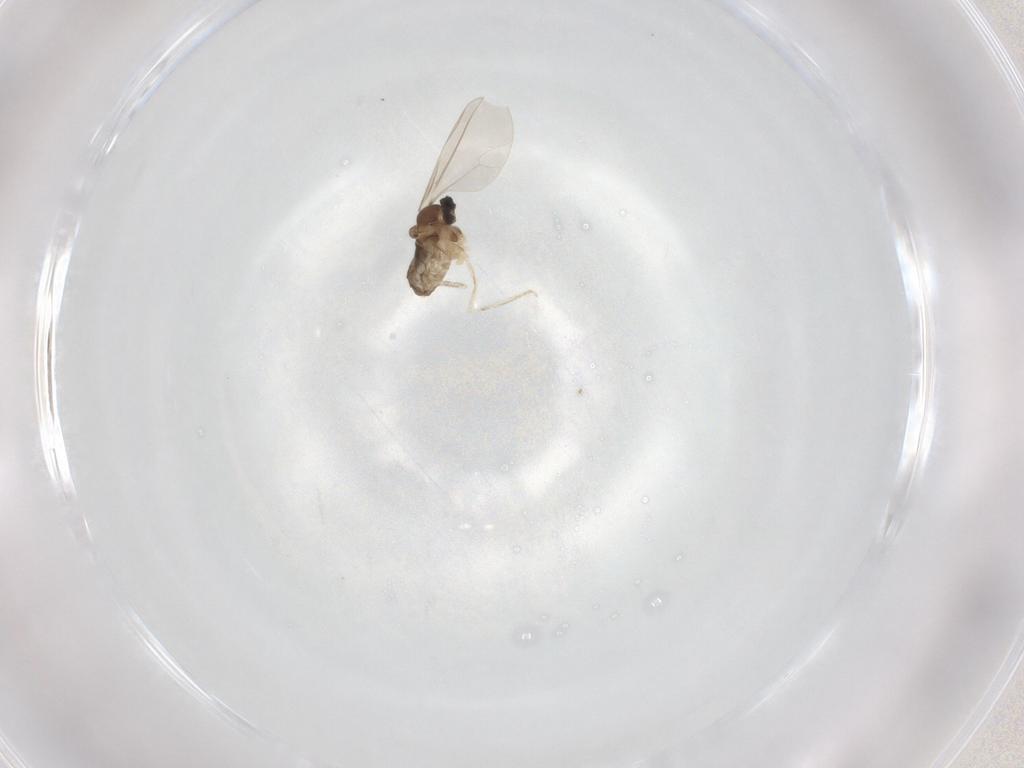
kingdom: Animalia
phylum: Arthropoda
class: Insecta
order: Diptera
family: Cecidomyiidae
